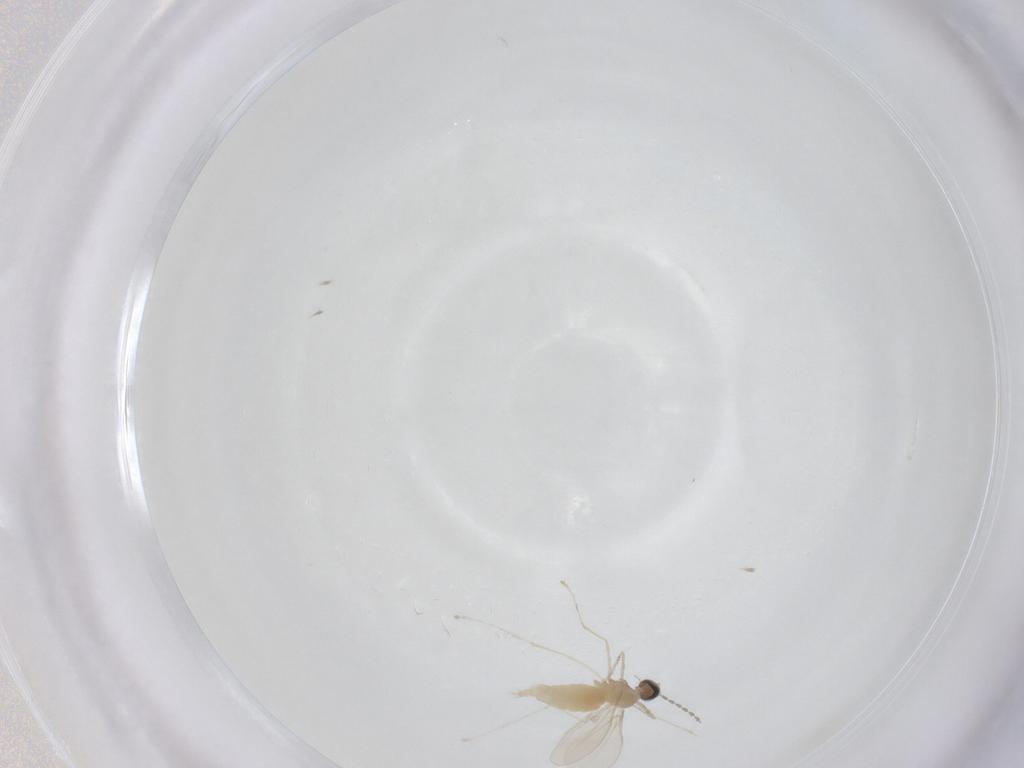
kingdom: Animalia
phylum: Arthropoda
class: Insecta
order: Diptera
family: Cecidomyiidae
